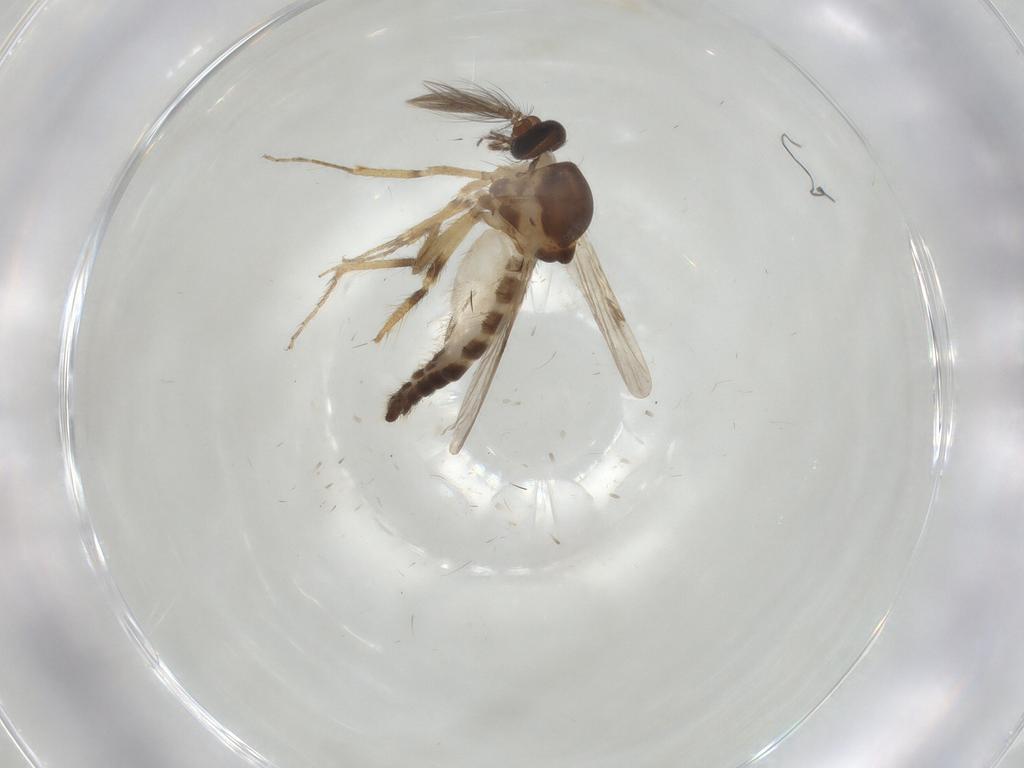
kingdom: Animalia
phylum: Arthropoda
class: Insecta
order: Diptera
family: Ceratopogonidae
